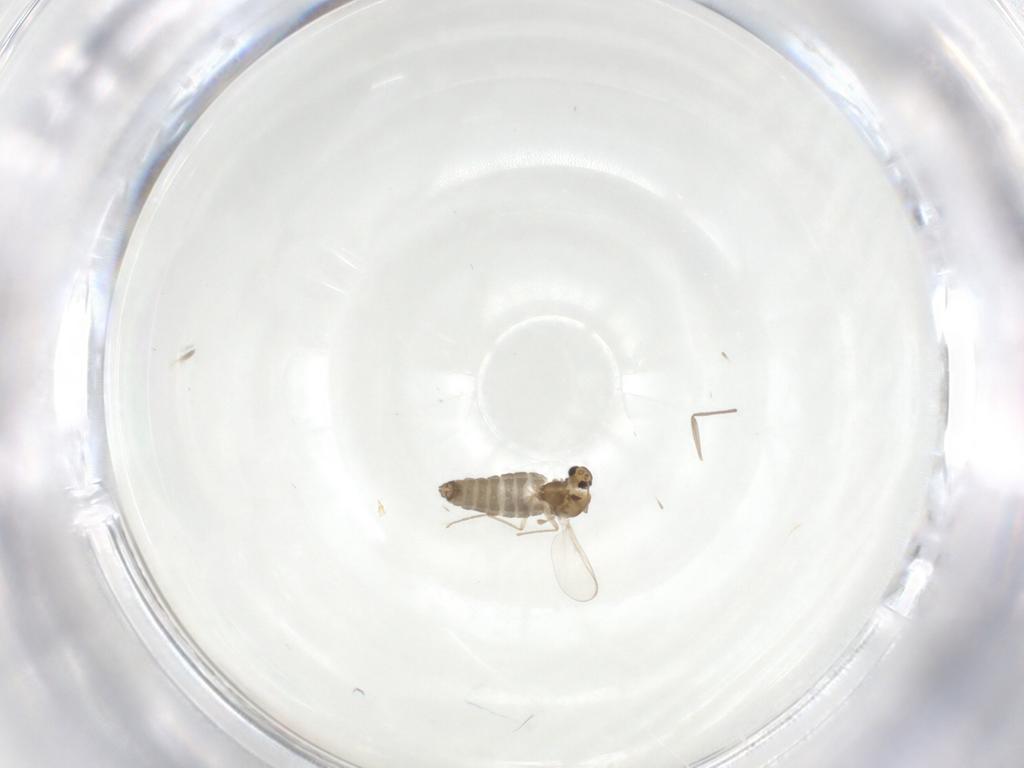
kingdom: Animalia
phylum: Arthropoda
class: Insecta
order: Diptera
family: Chironomidae
